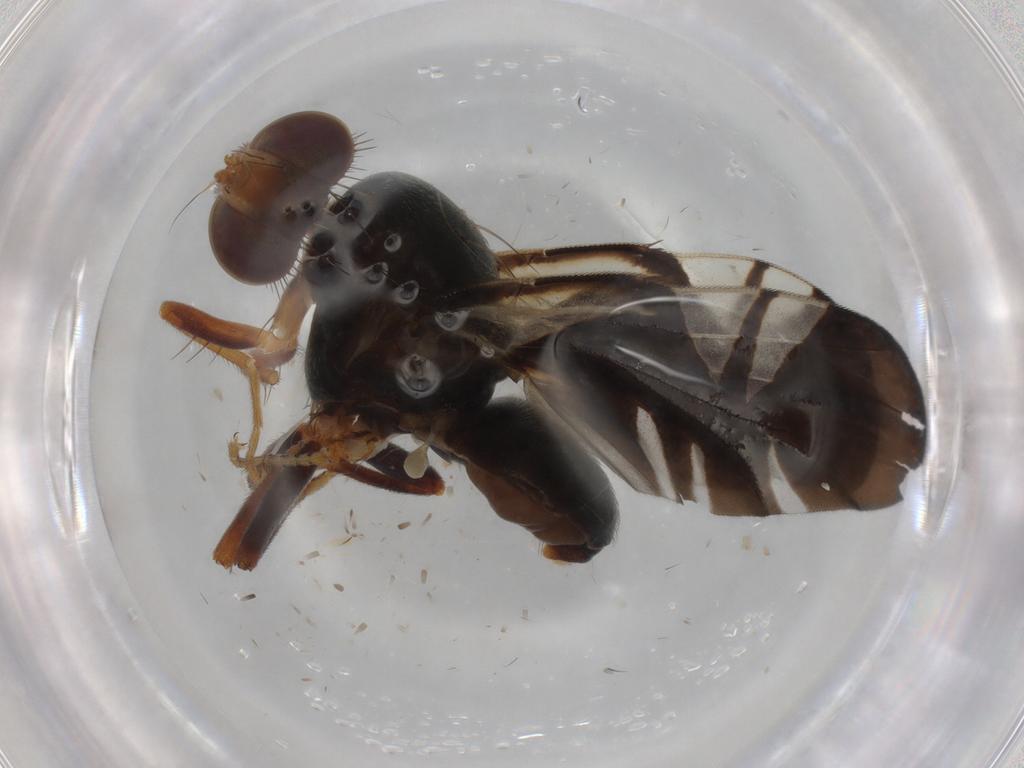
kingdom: Animalia
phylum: Arthropoda
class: Insecta
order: Diptera
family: Tephritidae
